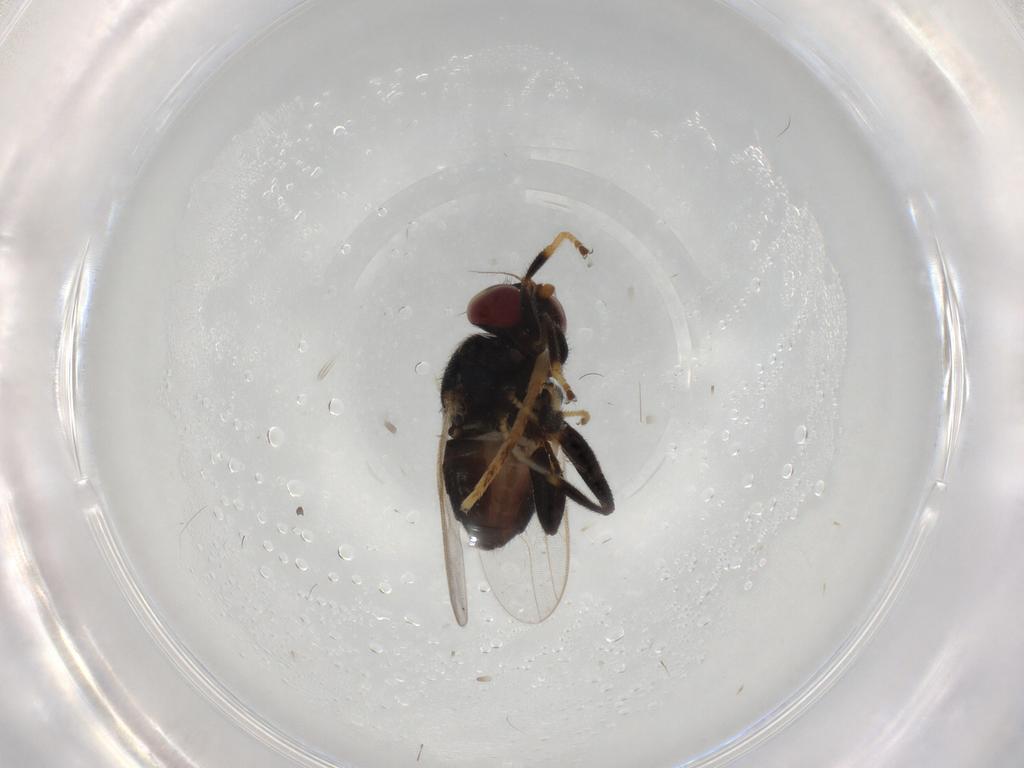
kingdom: Animalia
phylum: Arthropoda
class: Insecta
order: Diptera
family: Chloropidae
